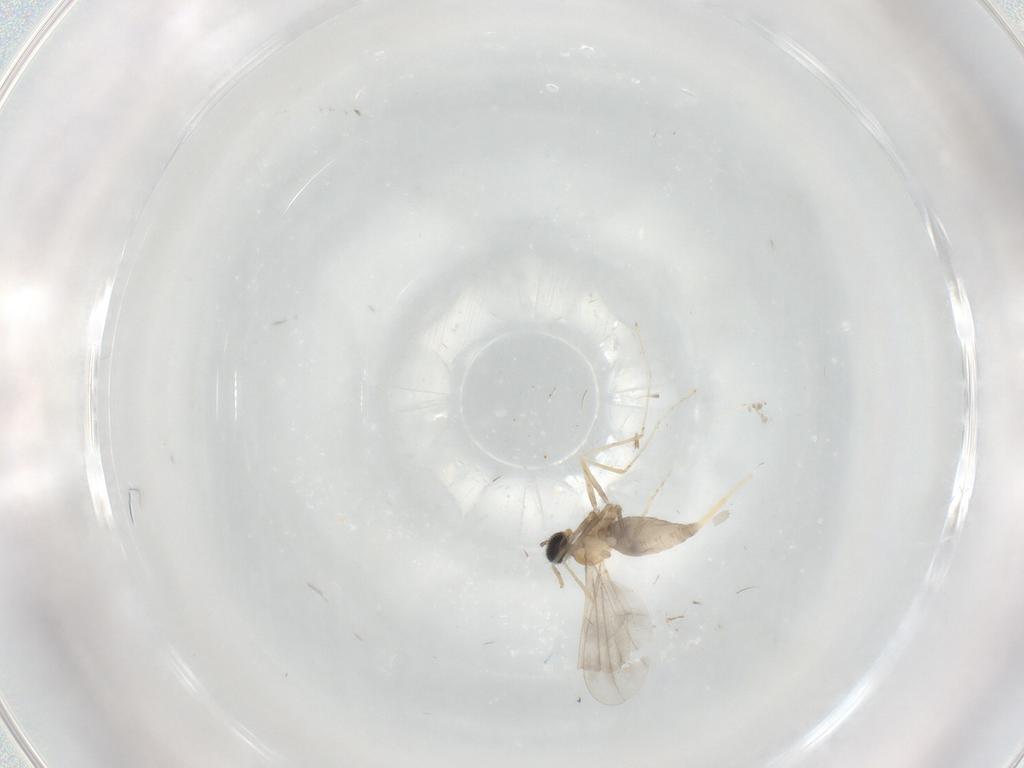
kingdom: Animalia
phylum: Arthropoda
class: Insecta
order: Diptera
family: Cecidomyiidae
